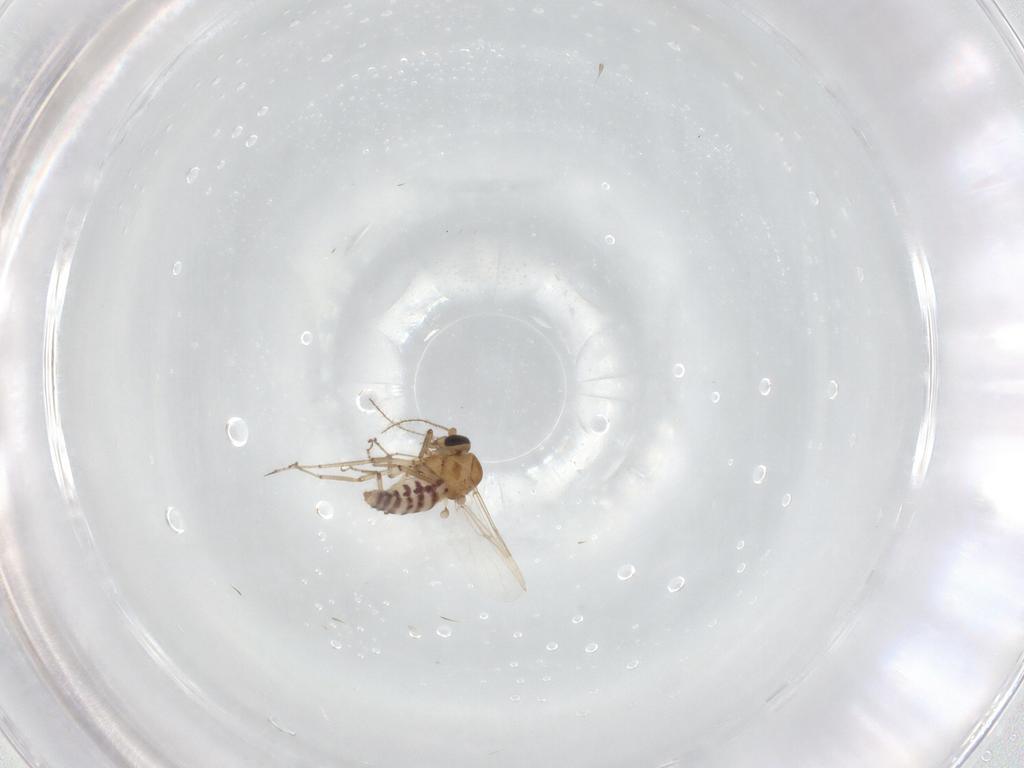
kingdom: Animalia
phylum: Arthropoda
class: Insecta
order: Diptera
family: Ceratopogonidae
